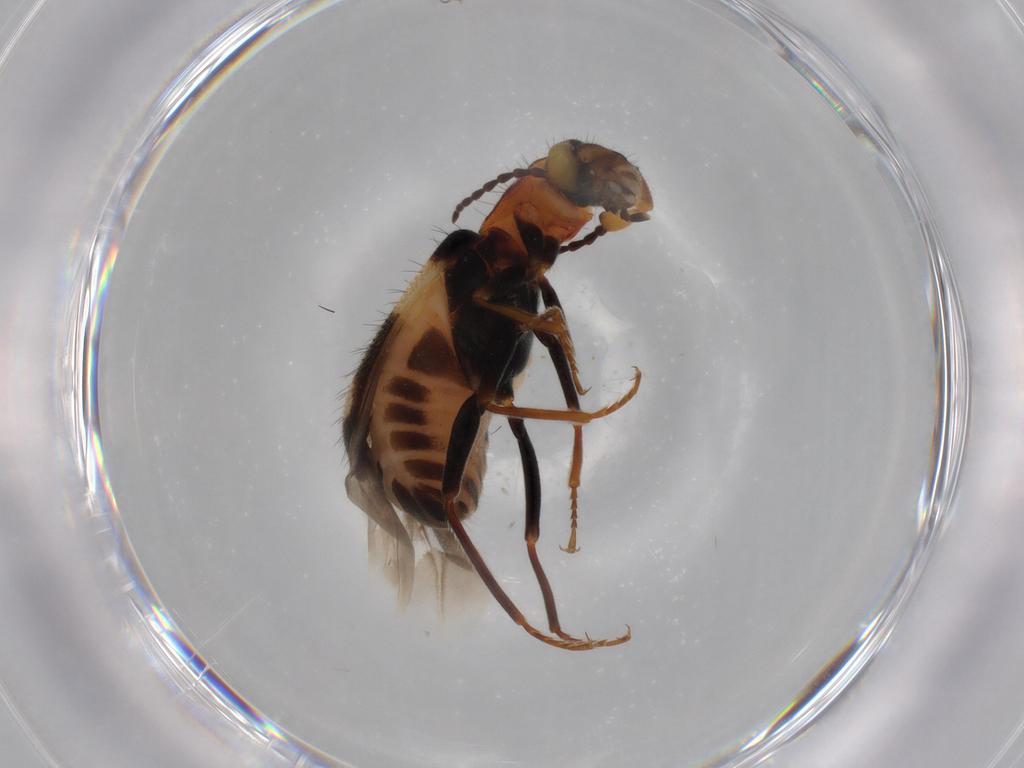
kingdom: Animalia
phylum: Arthropoda
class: Insecta
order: Coleoptera
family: Melyridae
